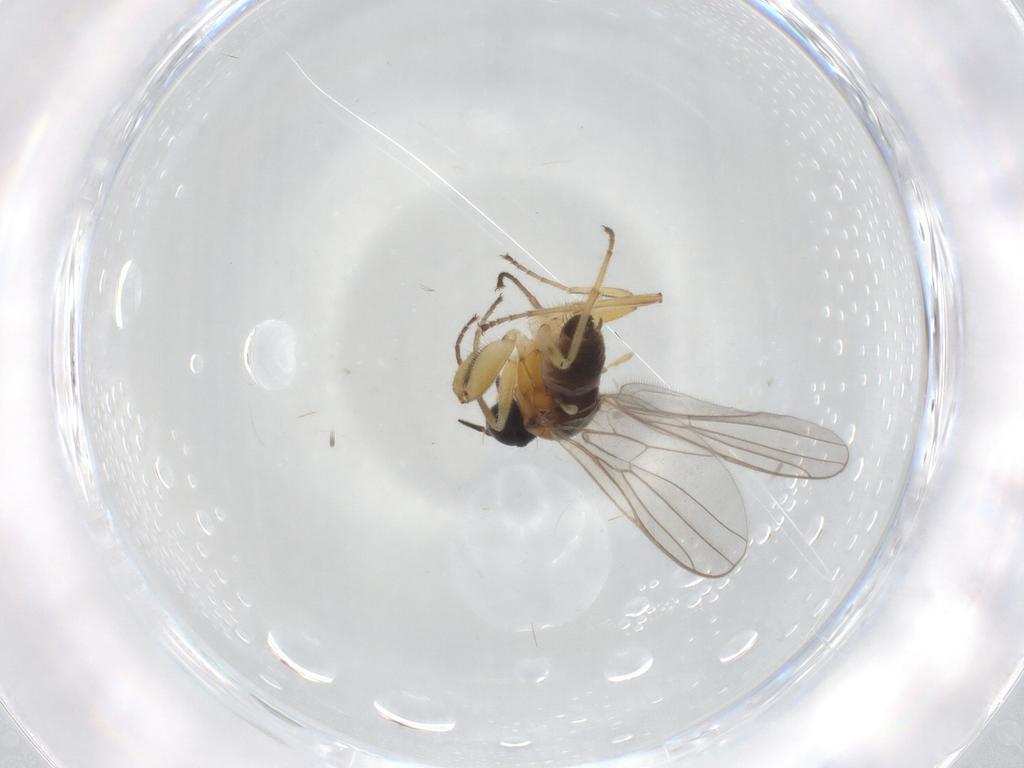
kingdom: Animalia
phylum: Arthropoda
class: Insecta
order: Diptera
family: Hybotidae
